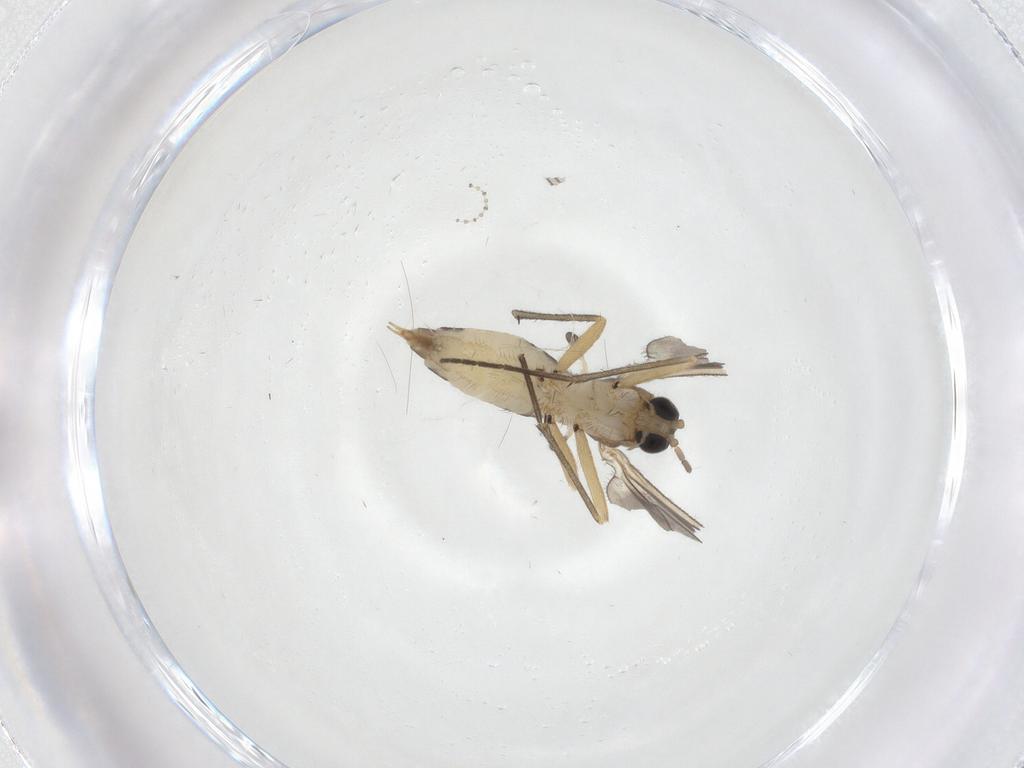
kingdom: Animalia
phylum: Arthropoda
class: Insecta
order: Diptera
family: Sciaridae
